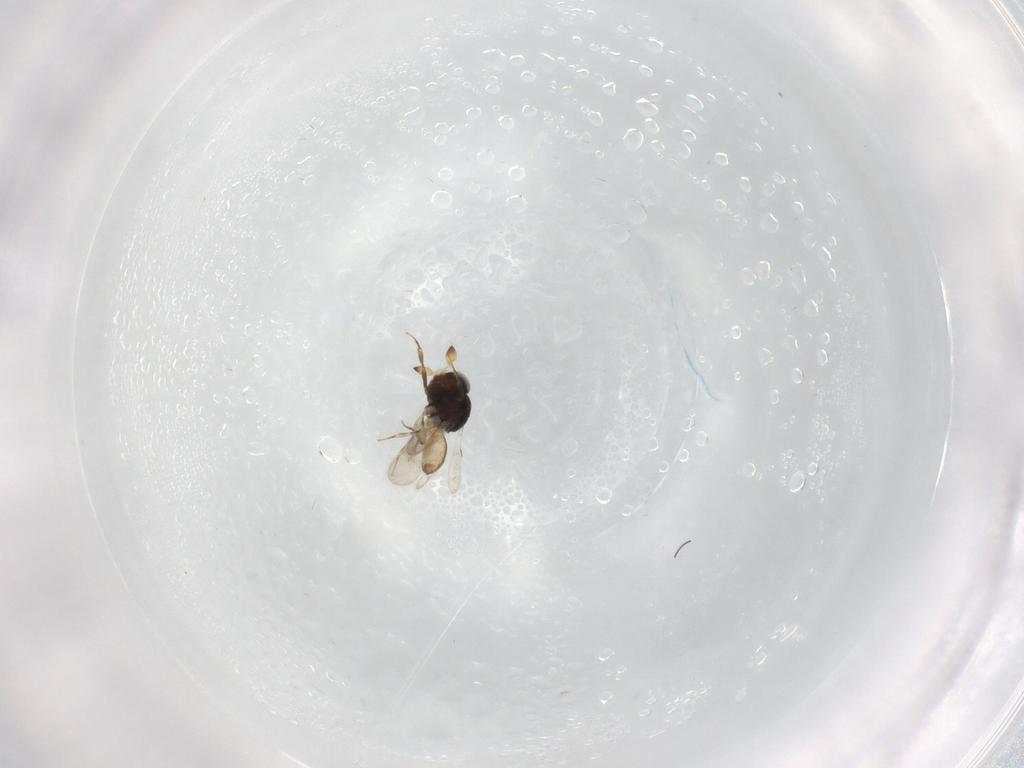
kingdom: Animalia
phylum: Arthropoda
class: Insecta
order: Hymenoptera
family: Scelionidae
